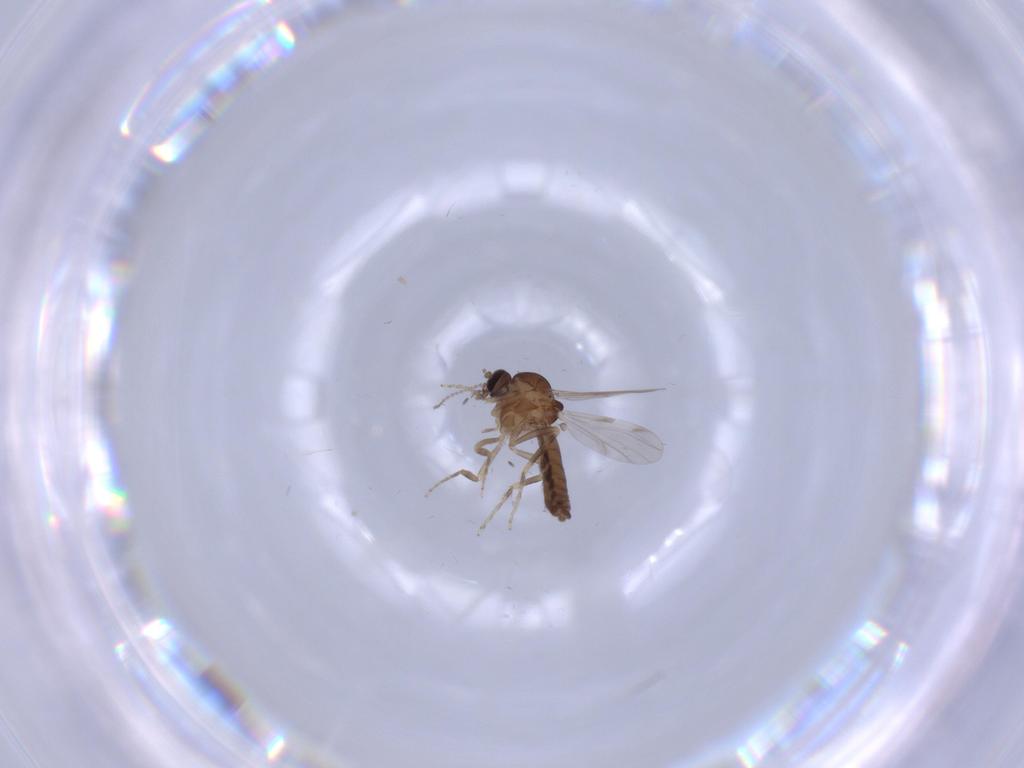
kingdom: Animalia
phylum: Arthropoda
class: Insecta
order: Diptera
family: Ceratopogonidae
